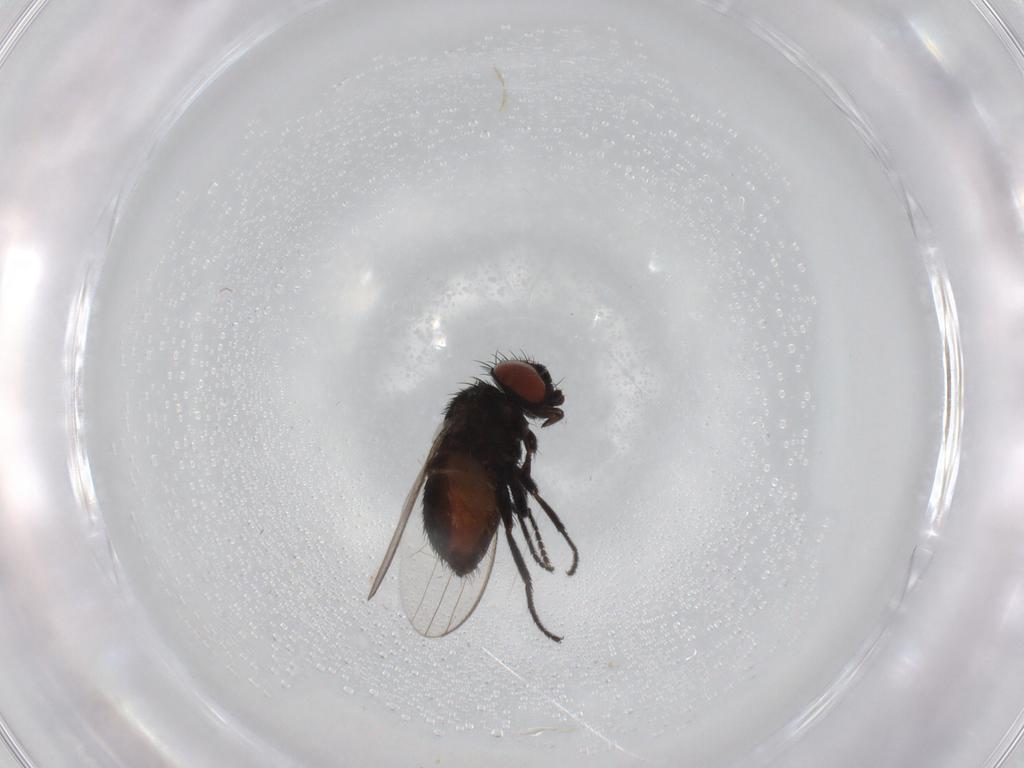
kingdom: Animalia
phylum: Arthropoda
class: Insecta
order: Diptera
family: Milichiidae
